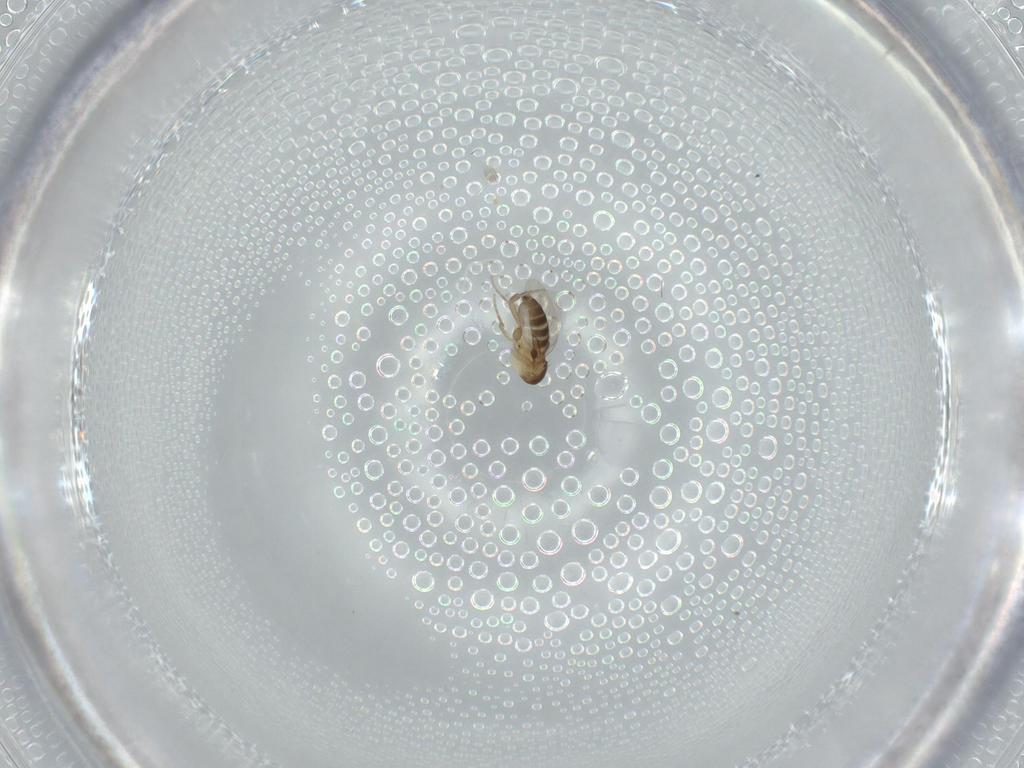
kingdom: Animalia
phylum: Arthropoda
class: Insecta
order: Diptera
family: Phoridae
